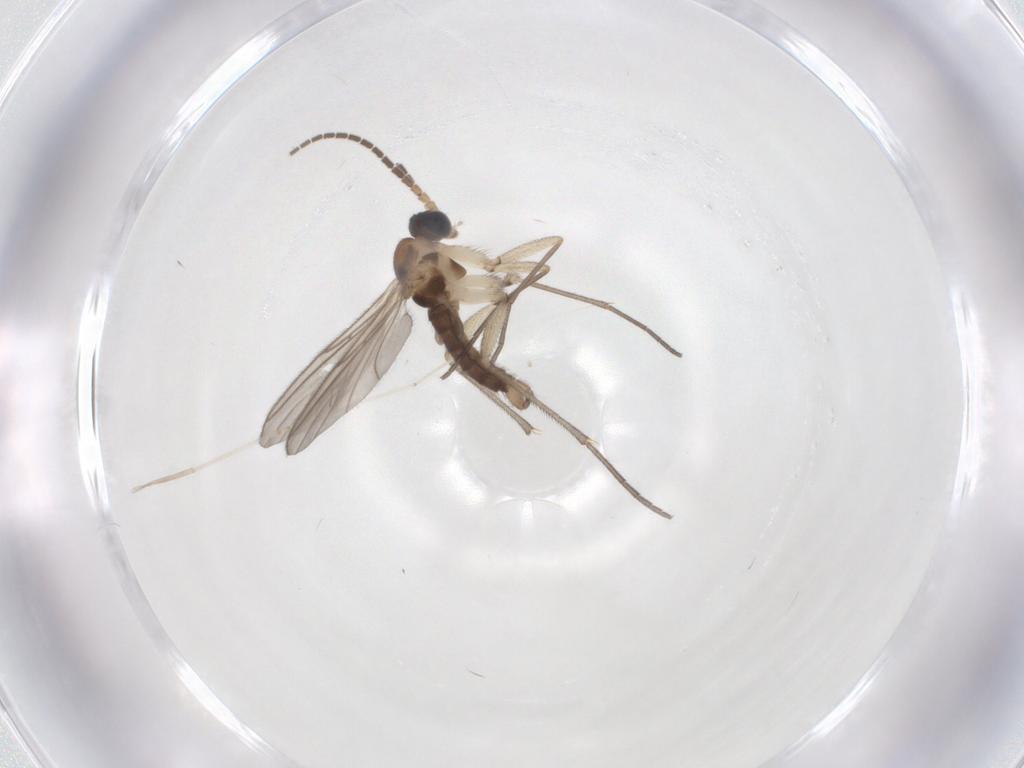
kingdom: Animalia
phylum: Arthropoda
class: Insecta
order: Diptera
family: Sciaridae
